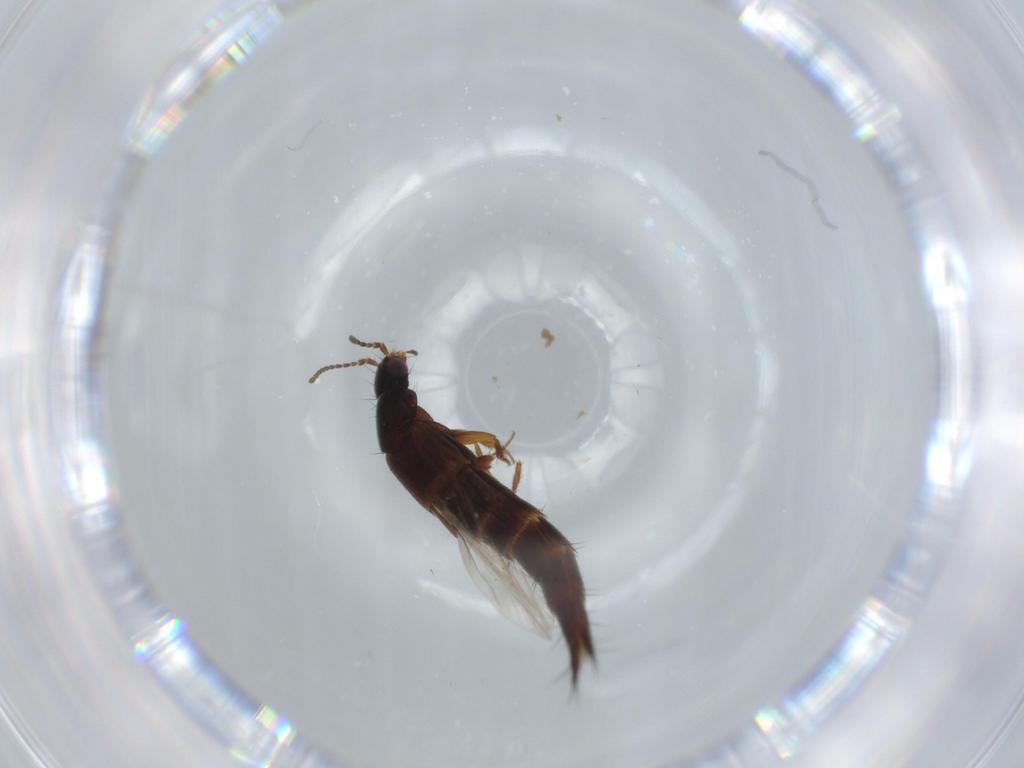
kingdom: Animalia
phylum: Arthropoda
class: Insecta
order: Coleoptera
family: Staphylinidae
